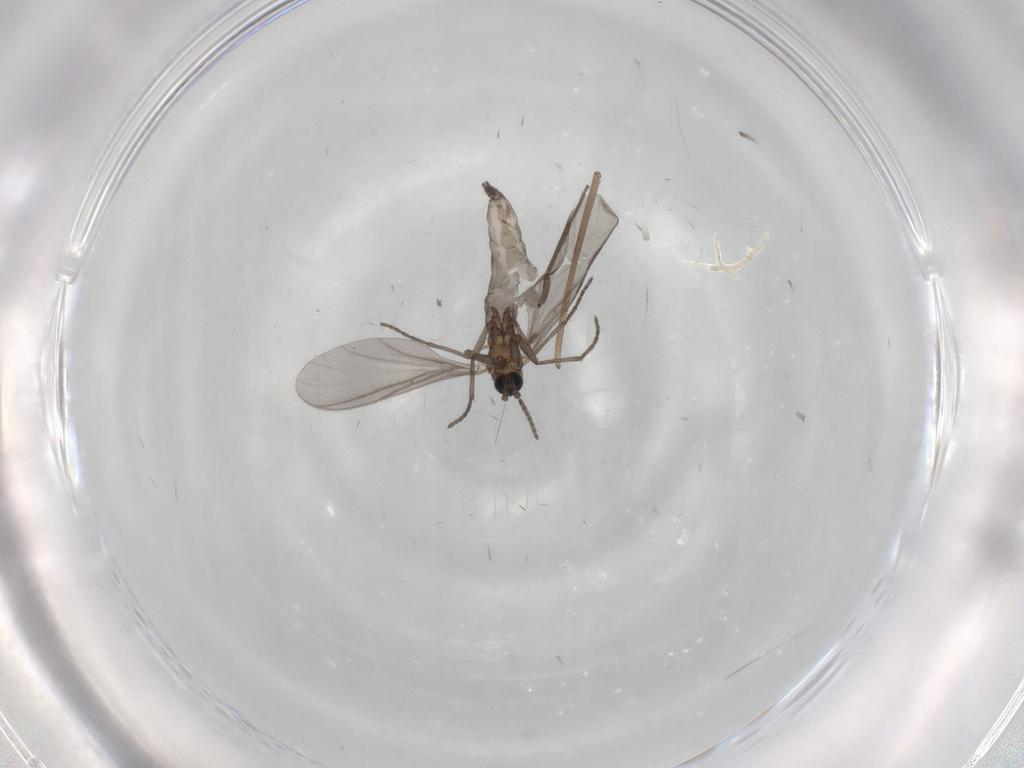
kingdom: Animalia
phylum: Arthropoda
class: Insecta
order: Diptera
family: Sciaridae
